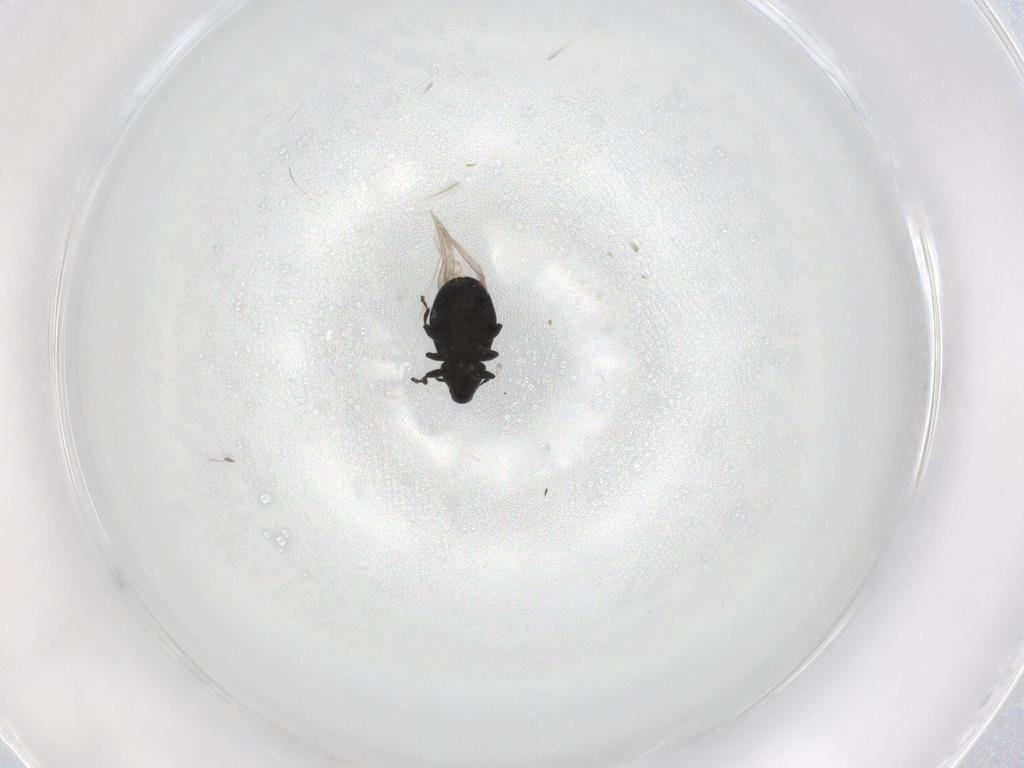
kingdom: Animalia
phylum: Arthropoda
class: Insecta
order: Coleoptera
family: Curculionidae
